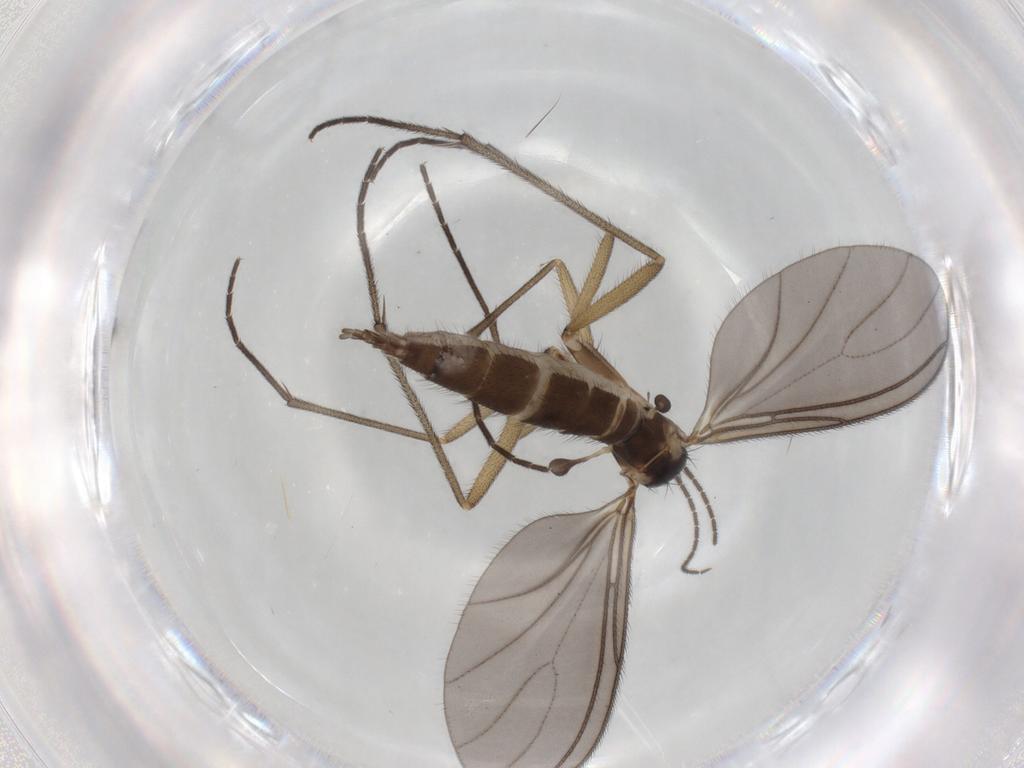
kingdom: Animalia
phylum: Arthropoda
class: Insecta
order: Diptera
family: Sciaridae
